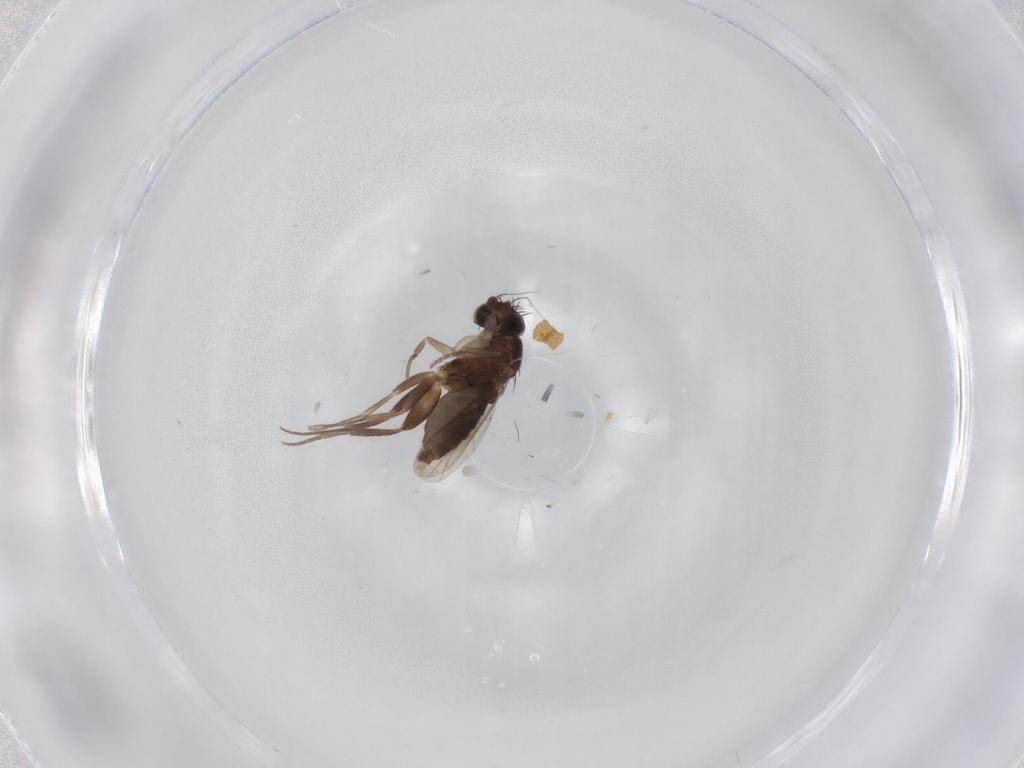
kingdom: Animalia
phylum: Arthropoda
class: Insecta
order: Diptera
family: Phoridae
